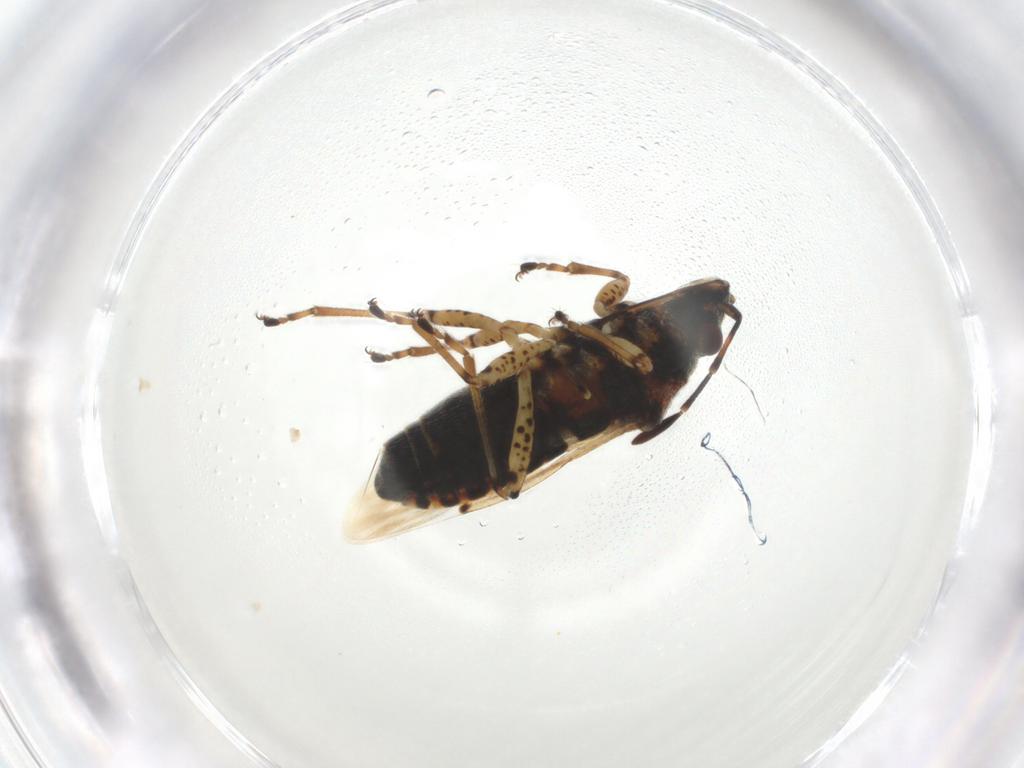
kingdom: Animalia
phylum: Arthropoda
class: Insecta
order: Hemiptera
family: Lygaeidae
